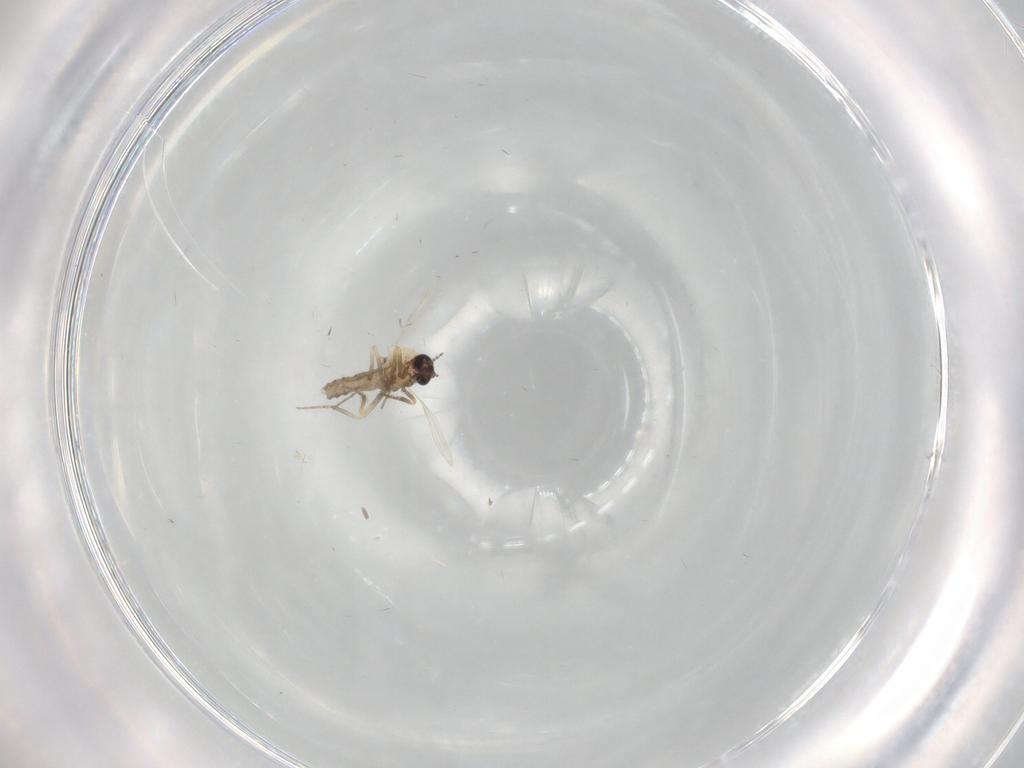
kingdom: Animalia
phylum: Arthropoda
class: Insecta
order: Diptera
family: Ceratopogonidae
